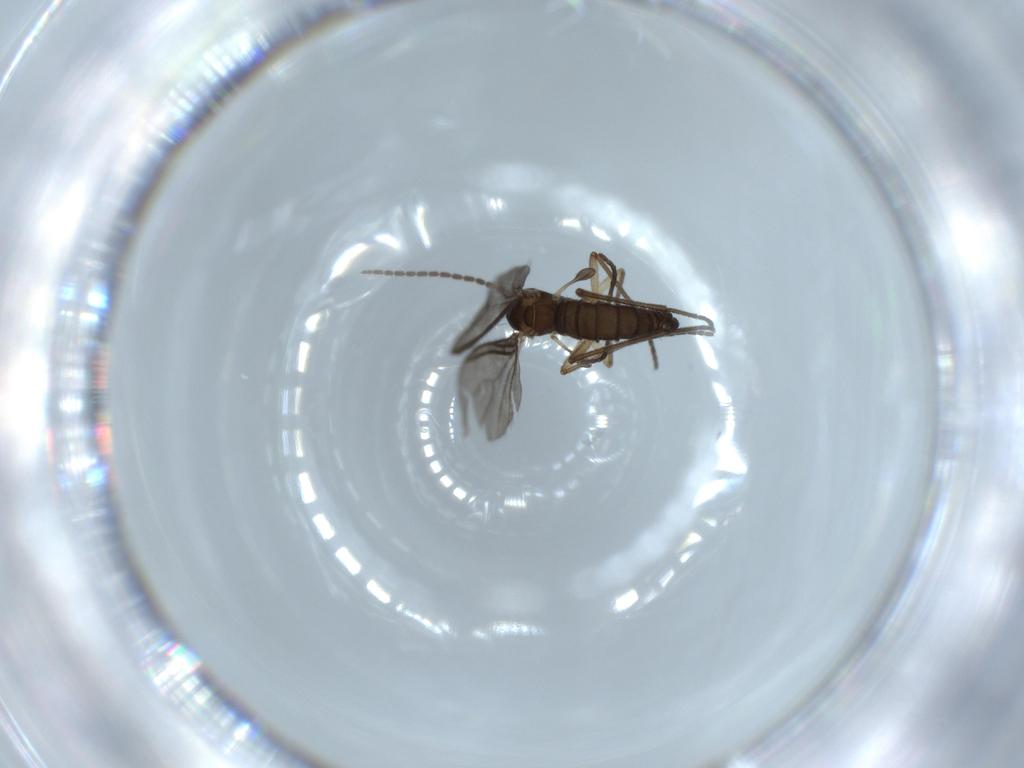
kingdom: Animalia
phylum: Arthropoda
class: Insecta
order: Diptera
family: Sciaridae
